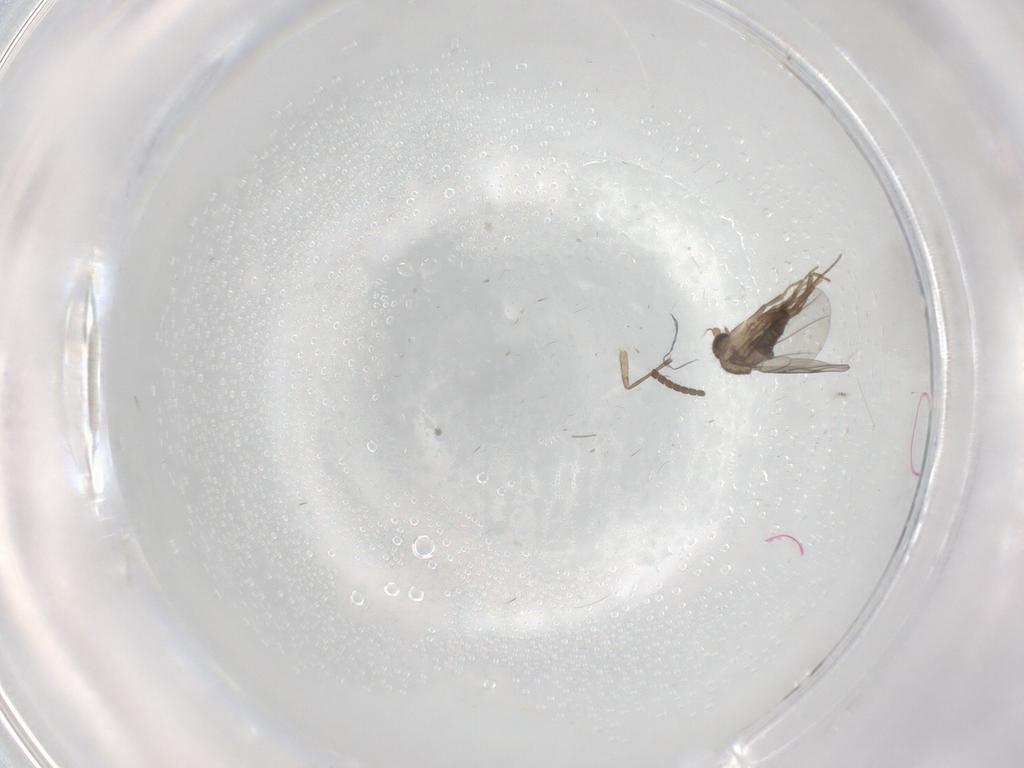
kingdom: Animalia
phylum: Arthropoda
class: Insecta
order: Diptera
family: Mycetophilidae
